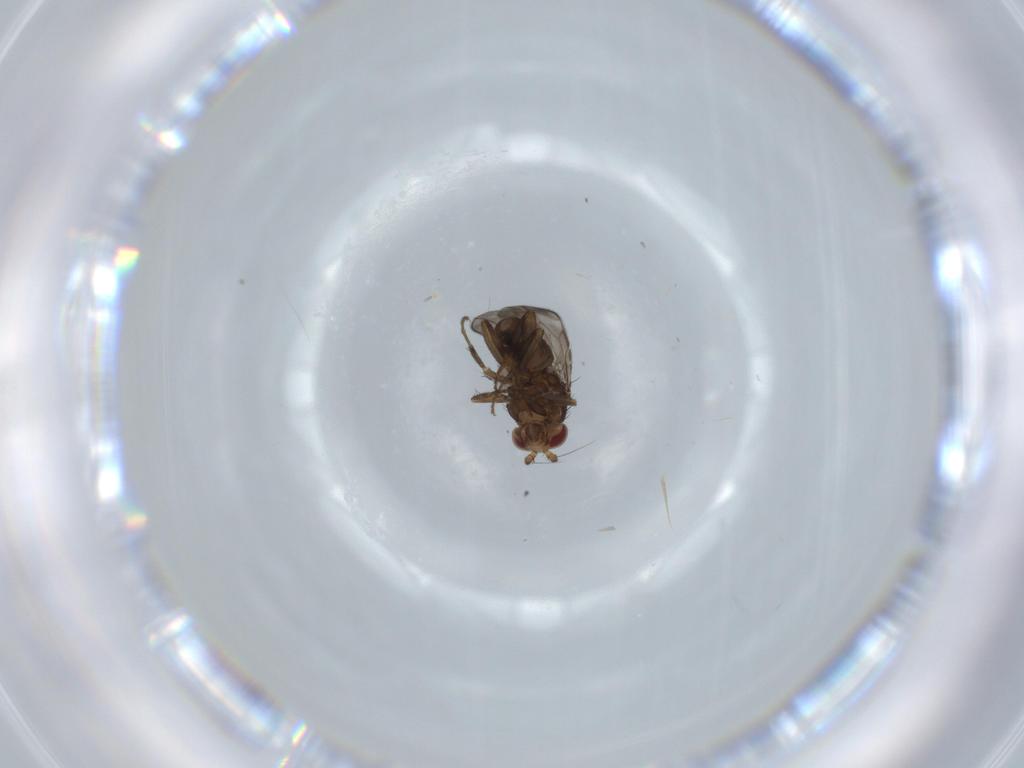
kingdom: Animalia
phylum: Arthropoda
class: Insecta
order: Diptera
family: Sphaeroceridae
